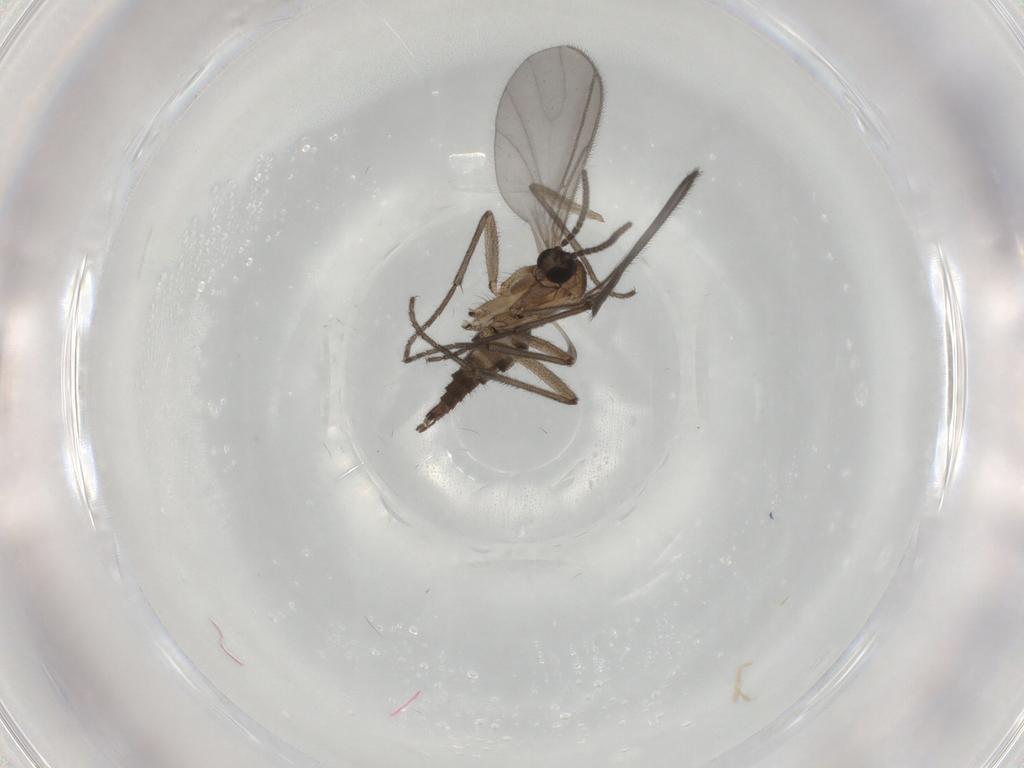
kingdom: Animalia
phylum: Arthropoda
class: Insecta
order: Diptera
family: Sciaridae
